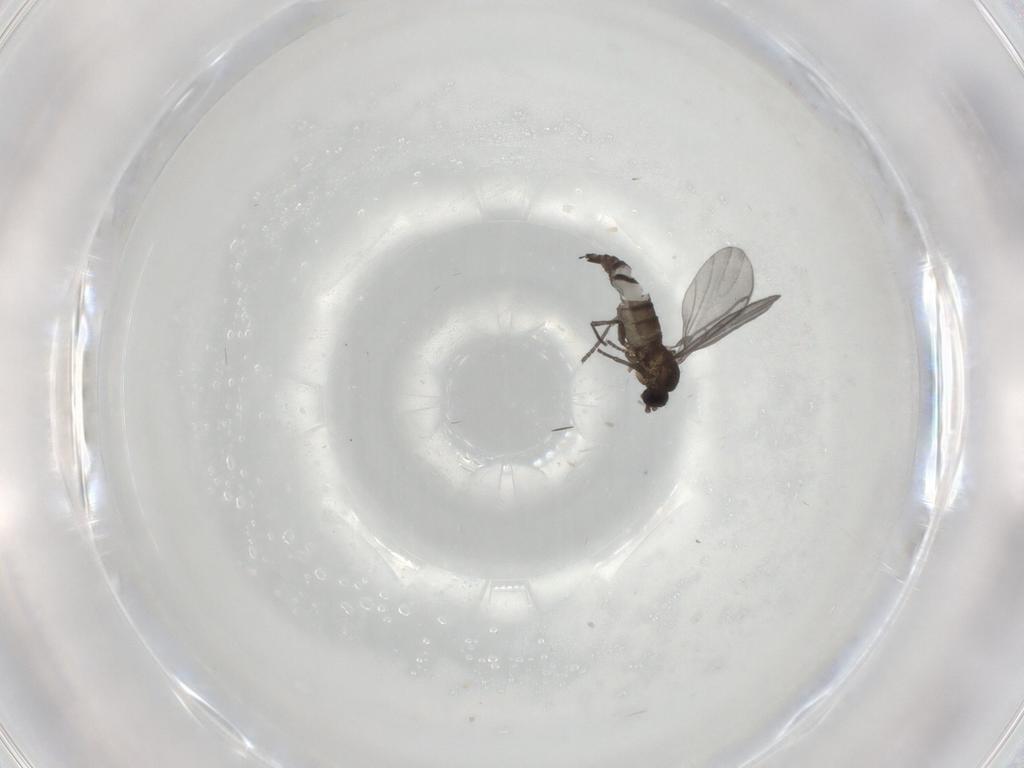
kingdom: Animalia
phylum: Arthropoda
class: Insecta
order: Diptera
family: Sciaridae
